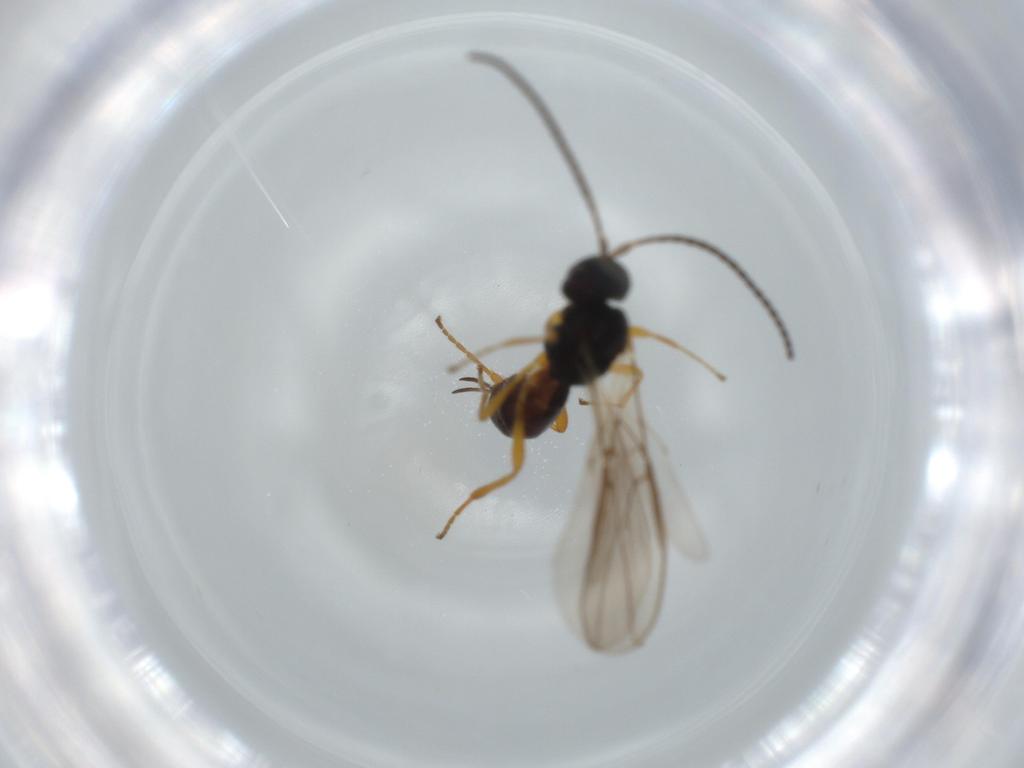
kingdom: Animalia
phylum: Arthropoda
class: Insecta
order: Hymenoptera
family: Braconidae
